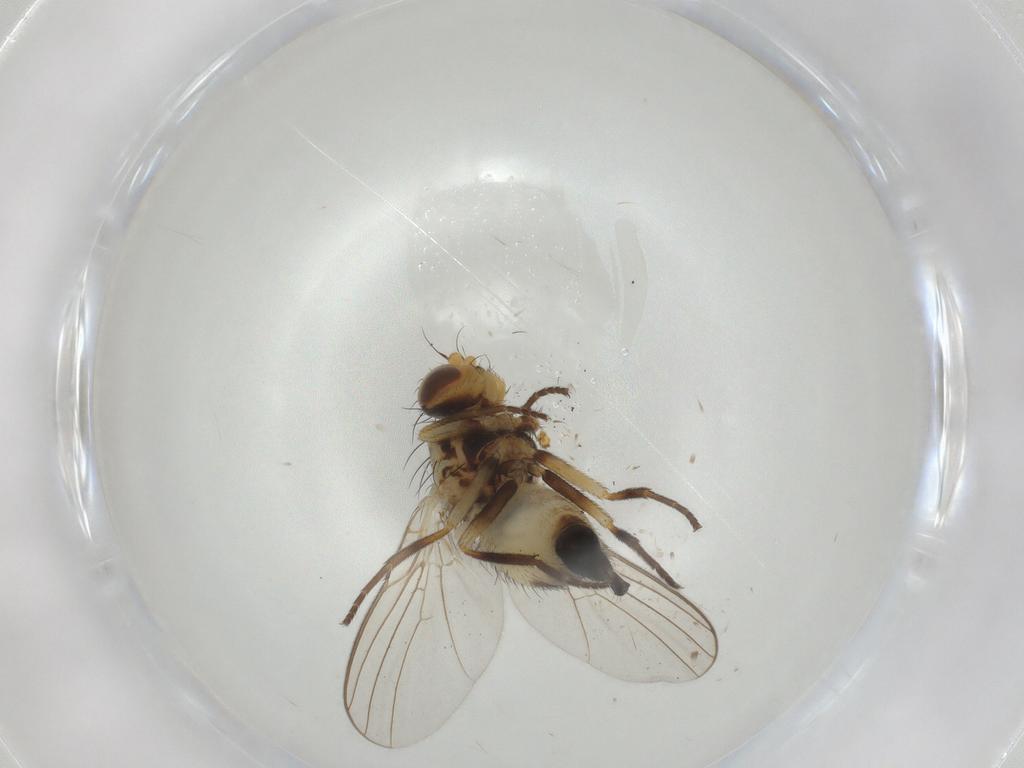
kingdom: Animalia
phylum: Arthropoda
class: Insecta
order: Diptera
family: Agromyzidae
